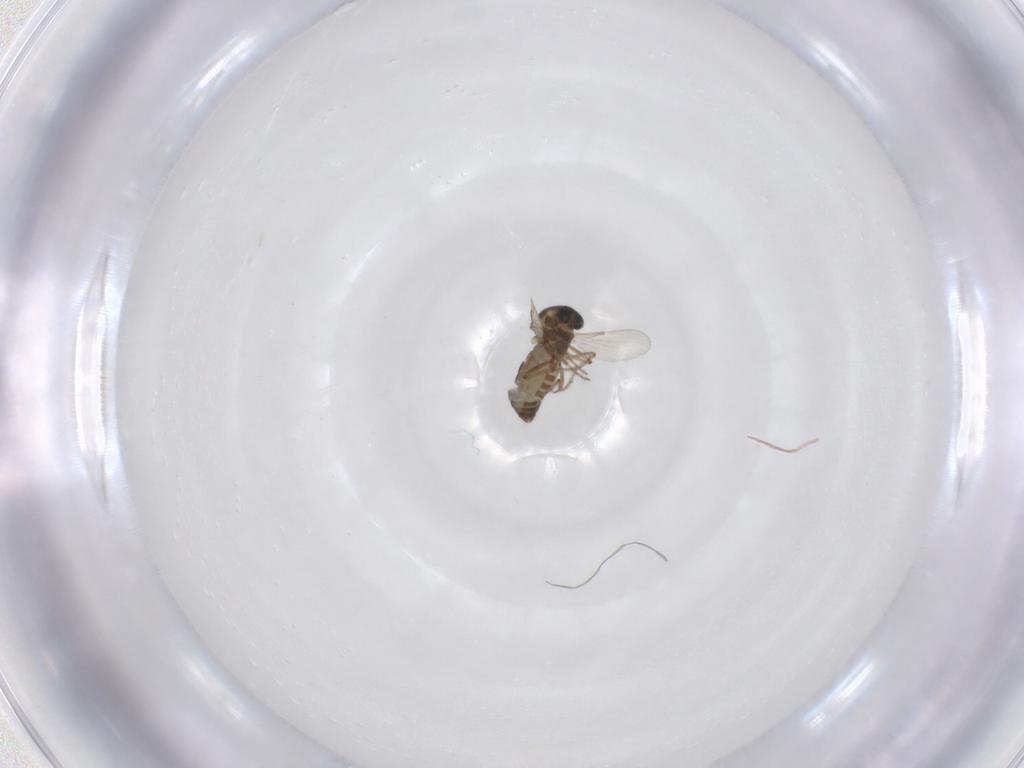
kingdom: Animalia
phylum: Arthropoda
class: Insecta
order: Diptera
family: Ceratopogonidae
